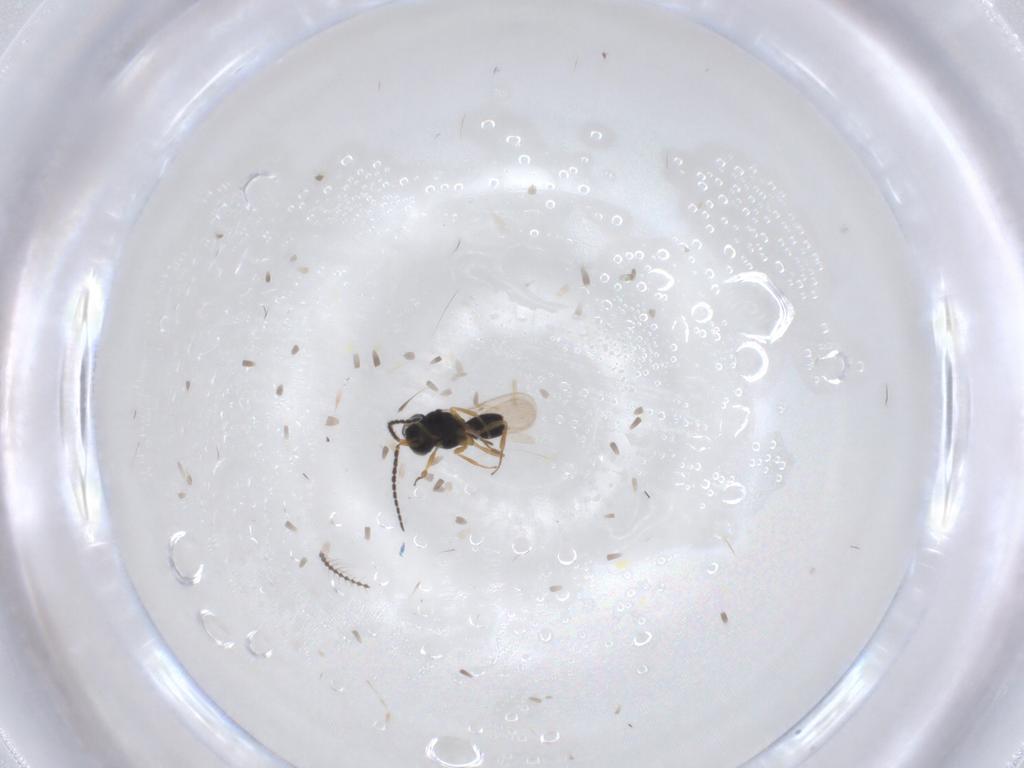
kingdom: Animalia
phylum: Arthropoda
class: Insecta
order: Hymenoptera
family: Scelionidae
